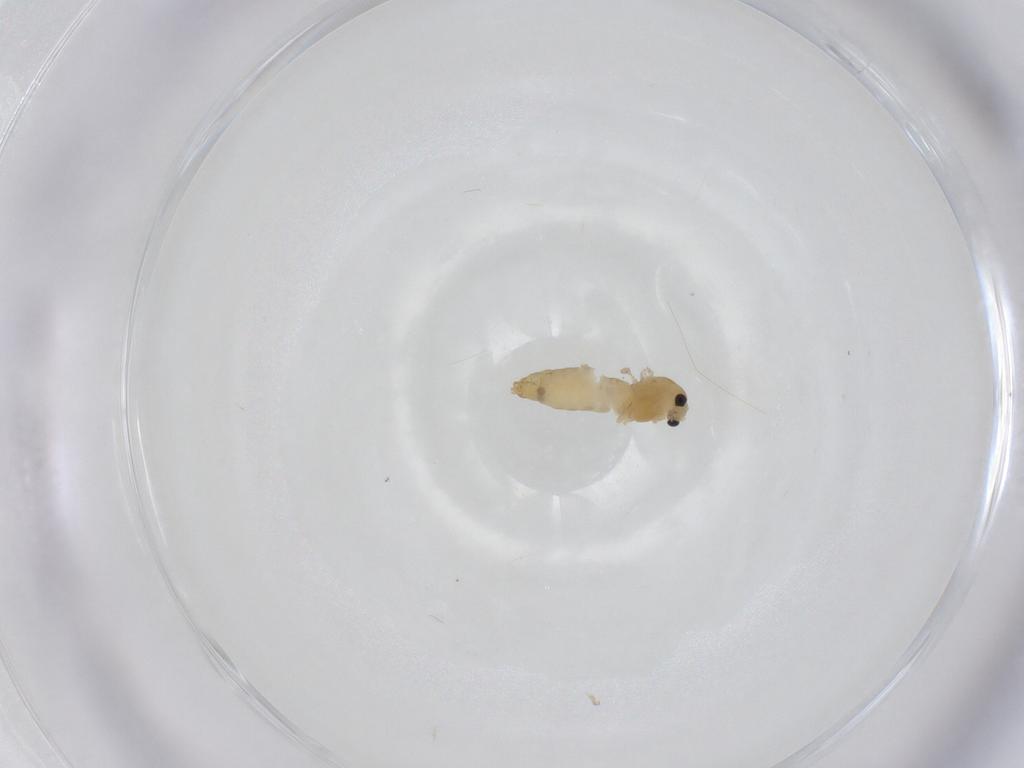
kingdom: Animalia
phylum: Arthropoda
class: Insecta
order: Diptera
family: Chironomidae
